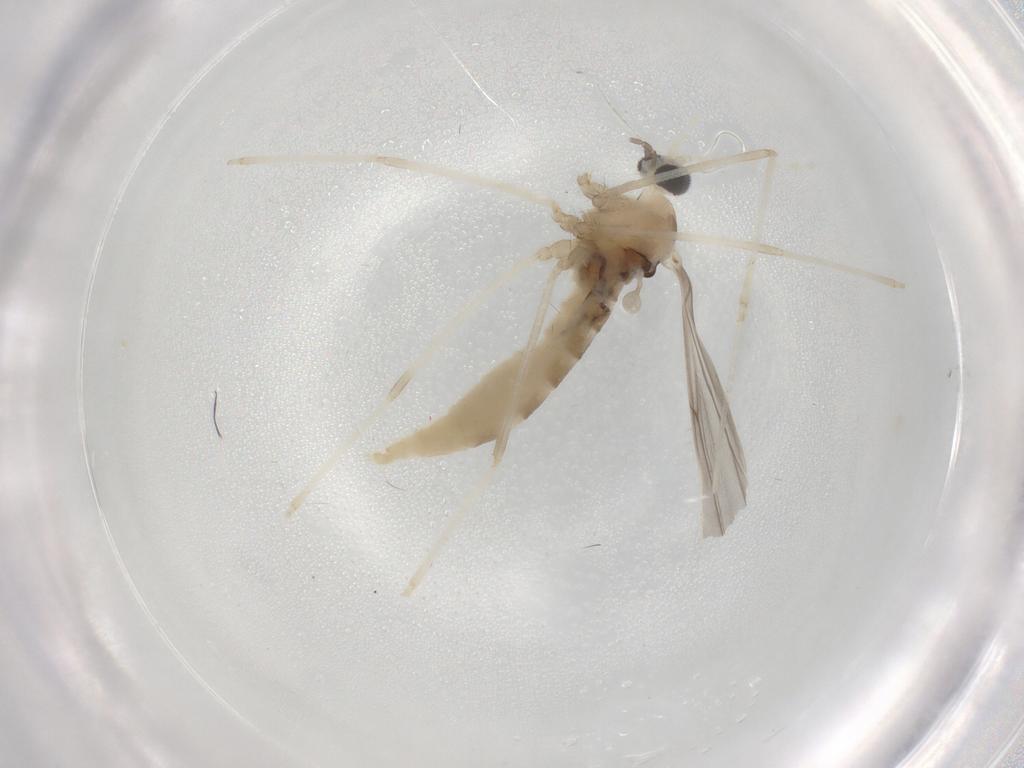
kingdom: Animalia
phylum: Arthropoda
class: Insecta
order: Diptera
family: Cecidomyiidae
